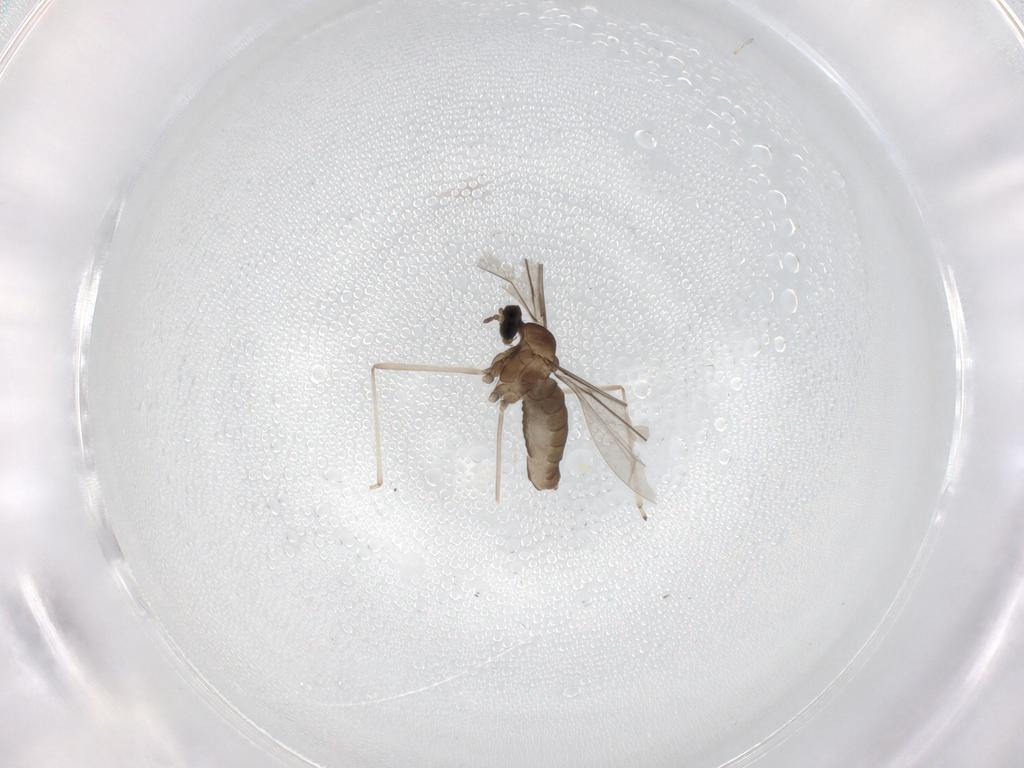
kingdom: Animalia
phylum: Arthropoda
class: Insecta
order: Diptera
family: Cecidomyiidae
